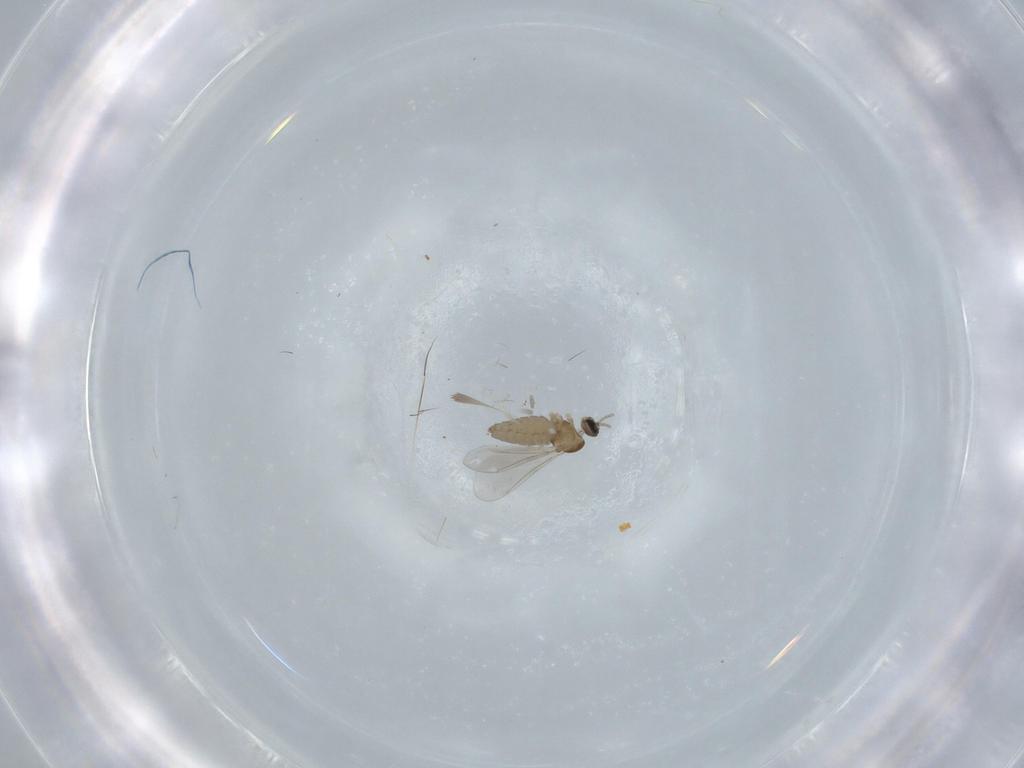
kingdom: Animalia
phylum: Arthropoda
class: Insecta
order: Diptera
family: Cecidomyiidae
